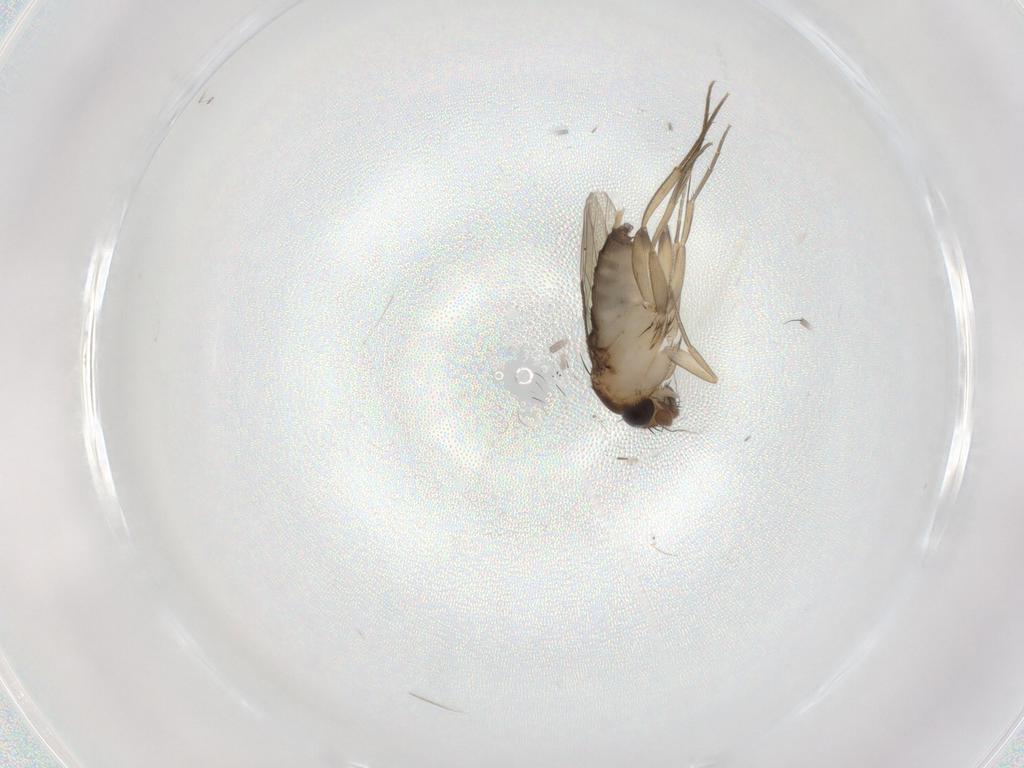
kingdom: Animalia
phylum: Arthropoda
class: Insecta
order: Diptera
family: Phoridae
